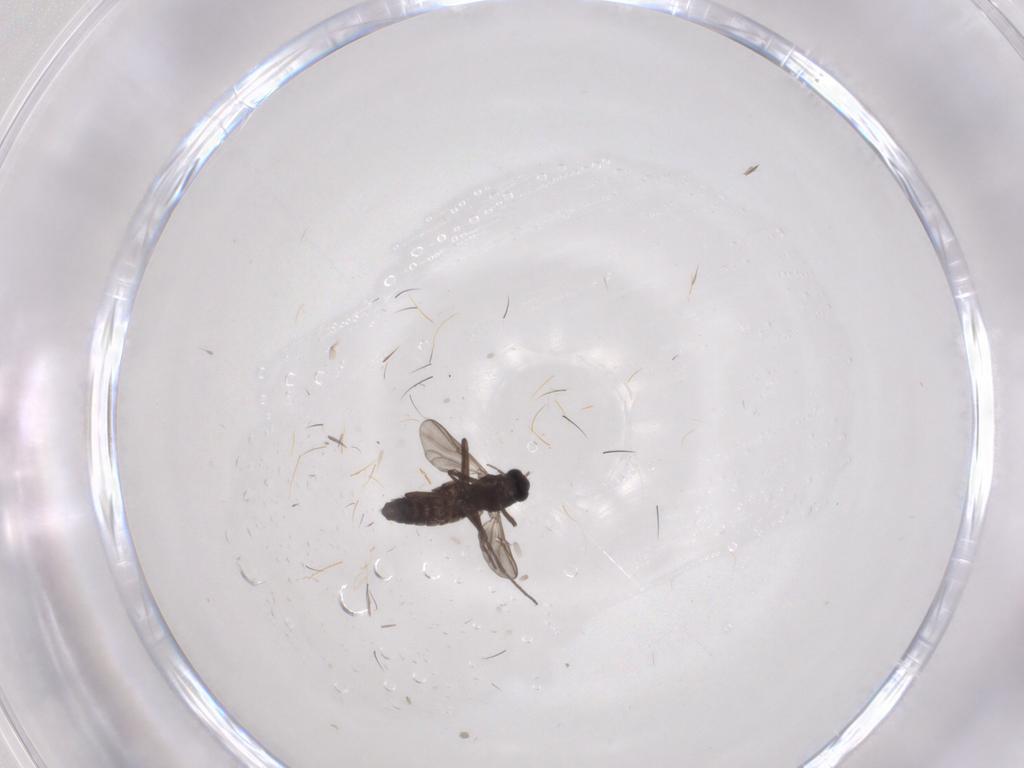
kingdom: Animalia
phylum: Arthropoda
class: Insecta
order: Diptera
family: Chironomidae
